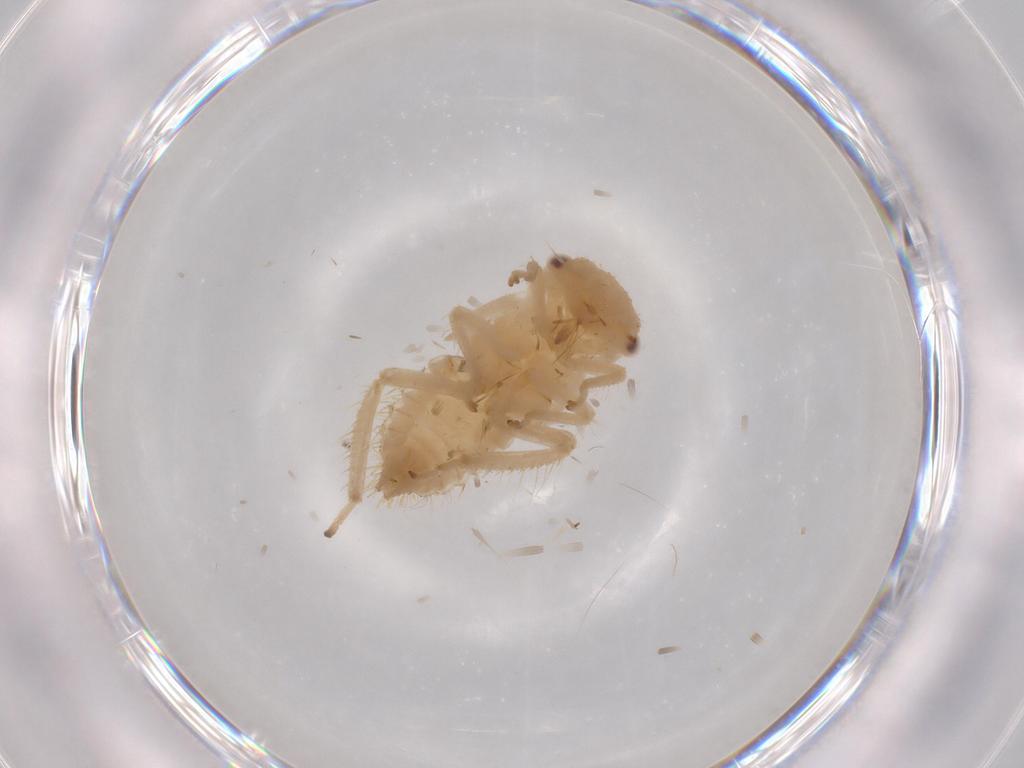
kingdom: Animalia
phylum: Arthropoda
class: Insecta
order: Hemiptera
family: Cicadellidae
